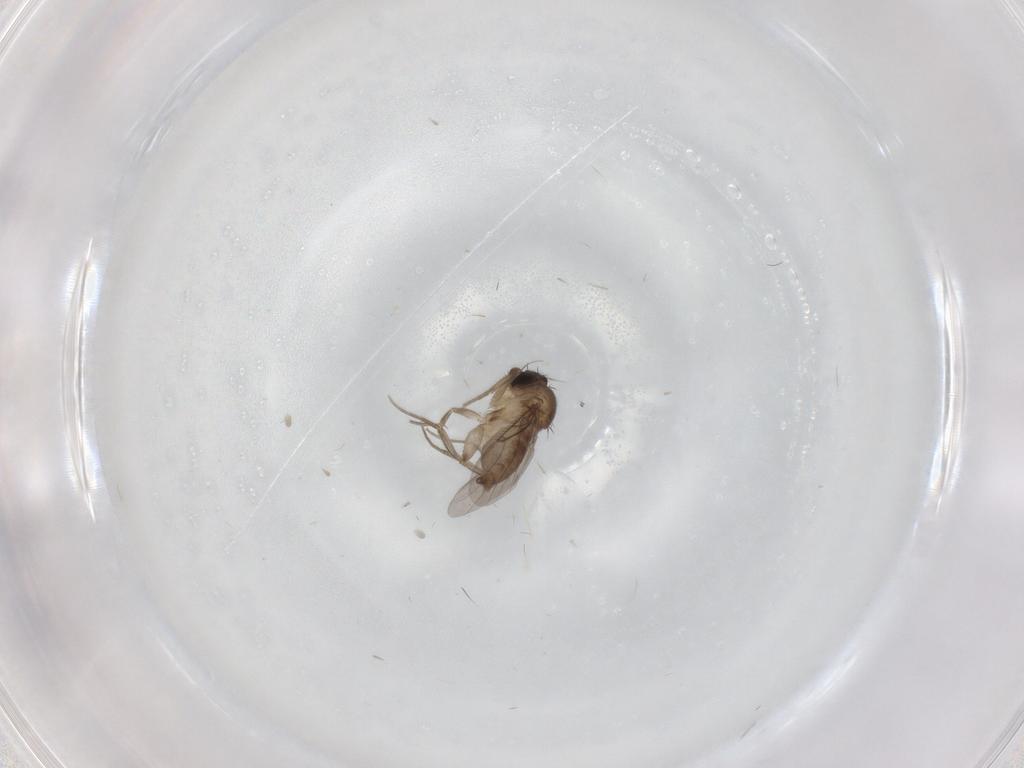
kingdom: Animalia
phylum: Arthropoda
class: Insecta
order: Diptera
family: Phoridae
